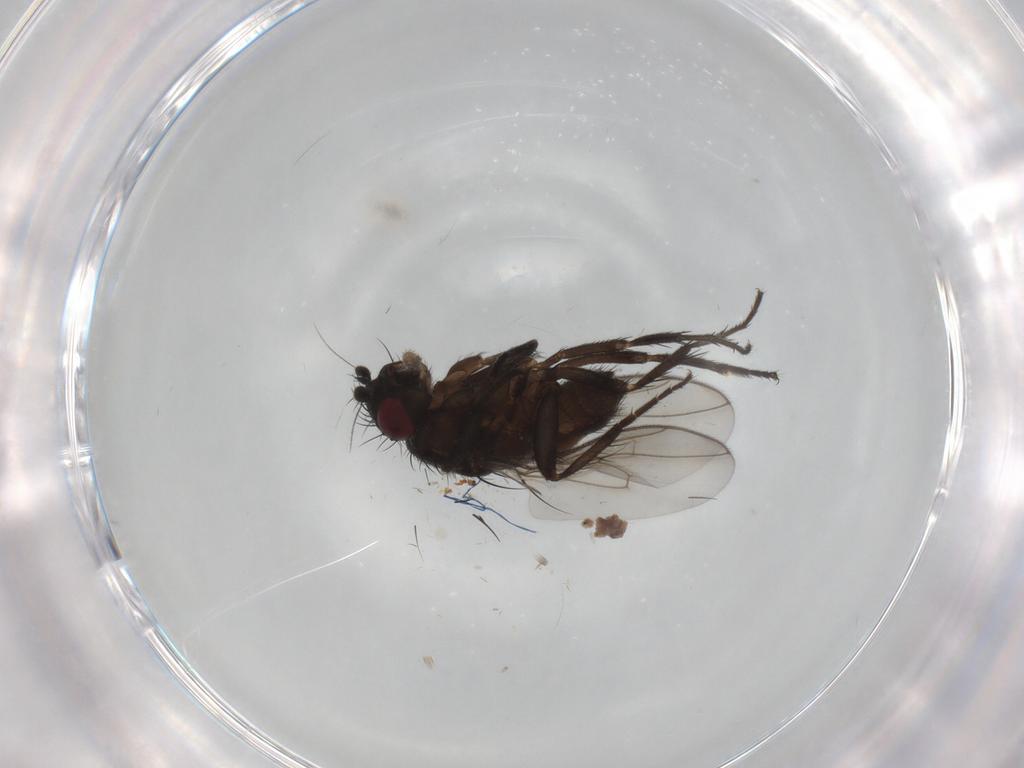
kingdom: Animalia
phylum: Arthropoda
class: Insecta
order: Diptera
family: Sphaeroceridae
